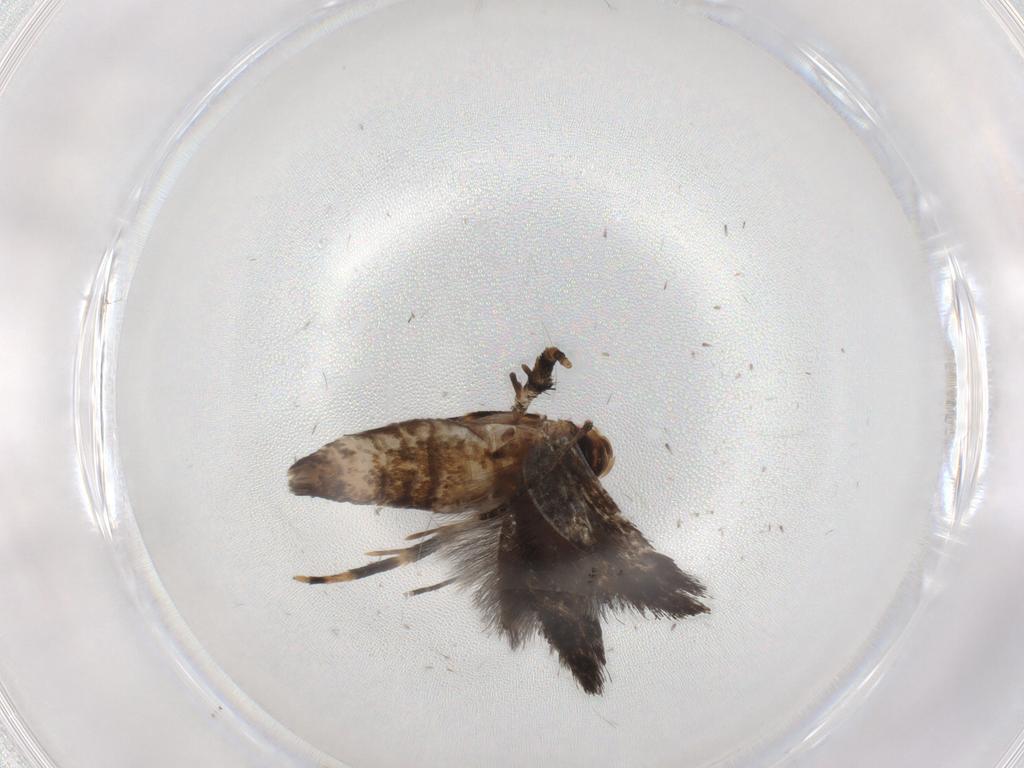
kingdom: Animalia
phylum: Arthropoda
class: Insecta
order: Lepidoptera
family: Momphidae
